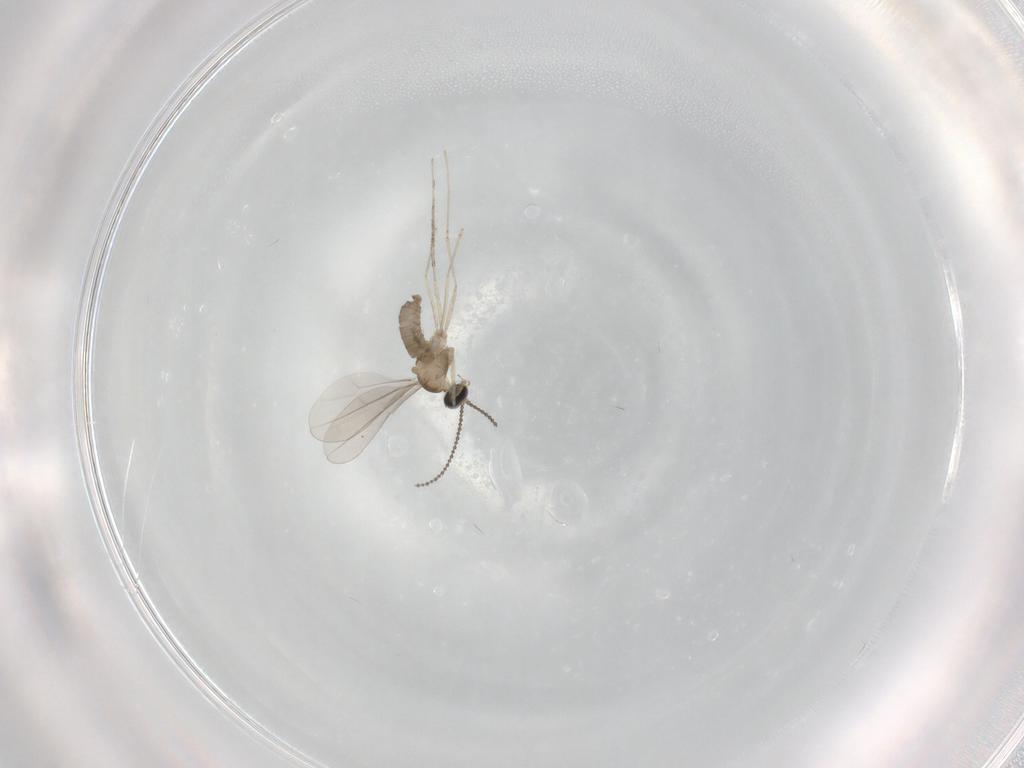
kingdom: Animalia
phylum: Arthropoda
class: Insecta
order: Diptera
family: Cecidomyiidae
